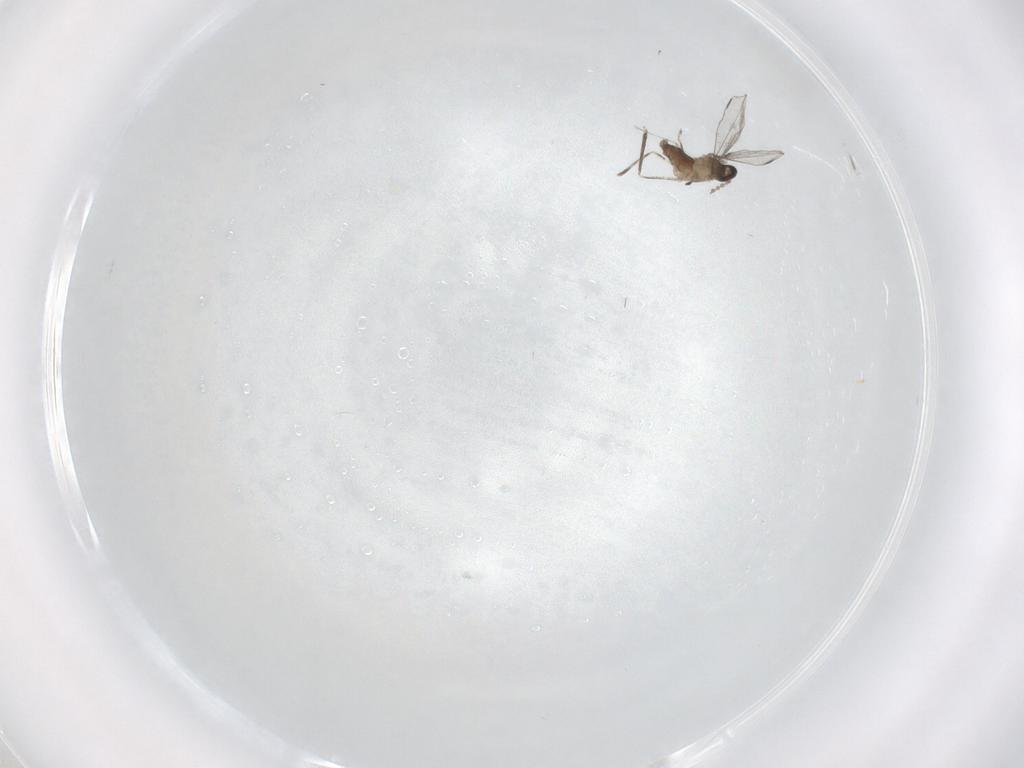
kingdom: Animalia
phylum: Arthropoda
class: Insecta
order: Diptera
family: Cecidomyiidae
